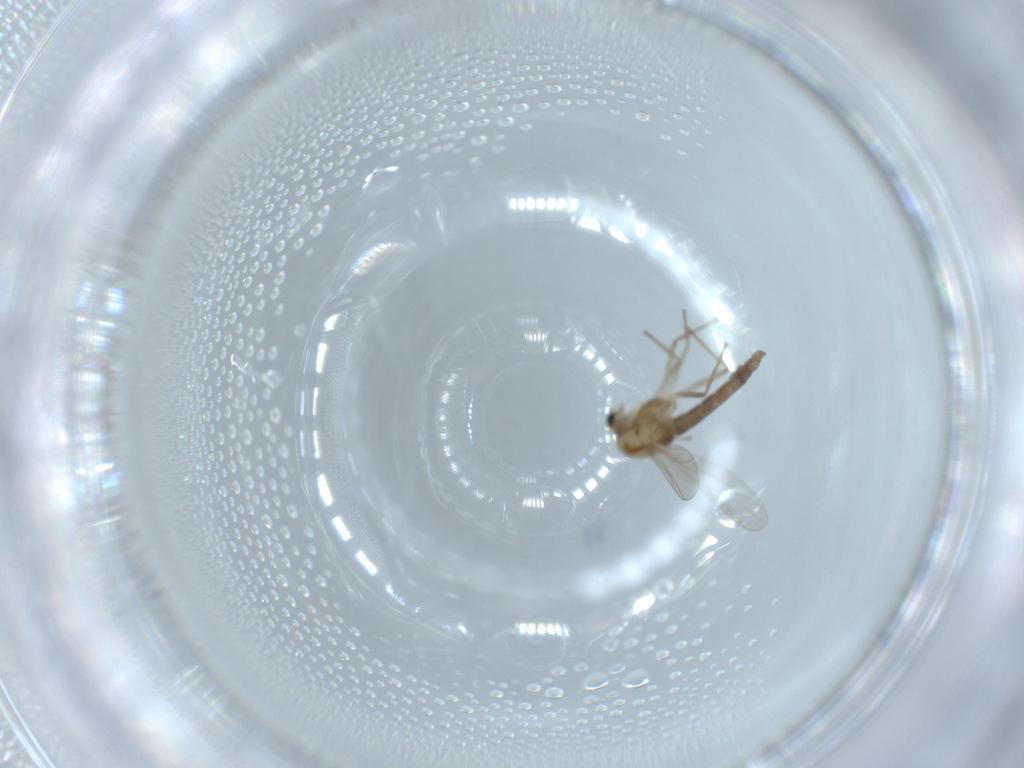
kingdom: Animalia
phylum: Arthropoda
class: Insecta
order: Diptera
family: Chironomidae
